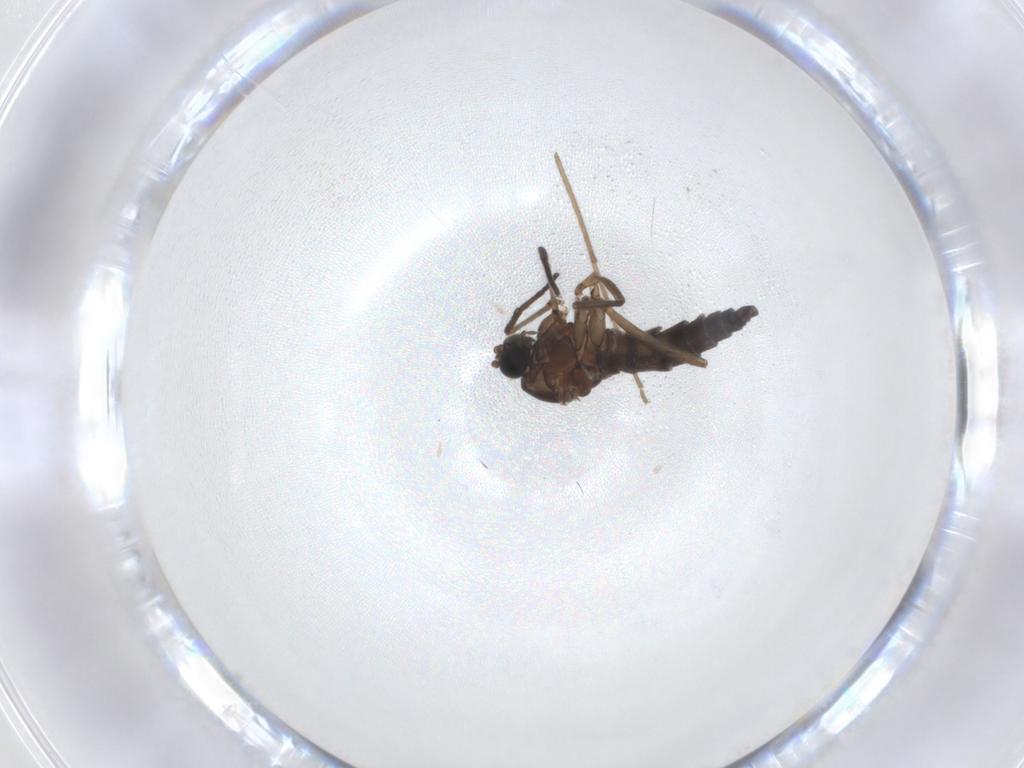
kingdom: Animalia
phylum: Arthropoda
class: Insecta
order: Diptera
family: Sciaridae
